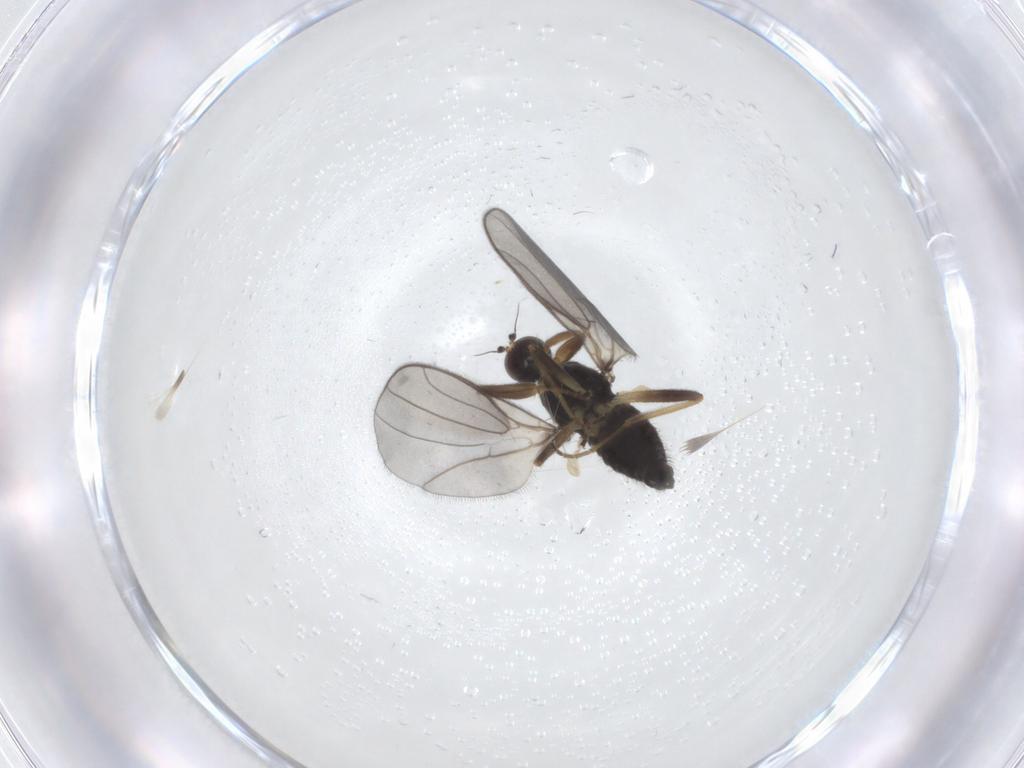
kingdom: Animalia
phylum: Arthropoda
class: Insecta
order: Diptera
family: Hybotidae
